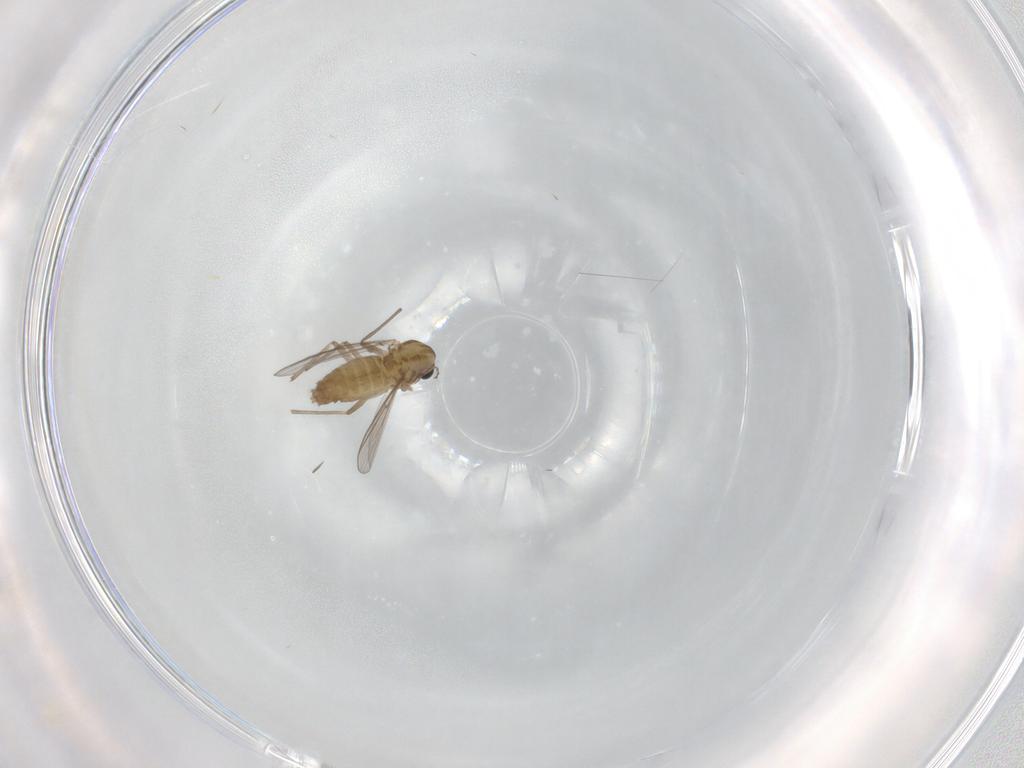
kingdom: Animalia
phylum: Arthropoda
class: Insecta
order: Diptera
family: Chironomidae
